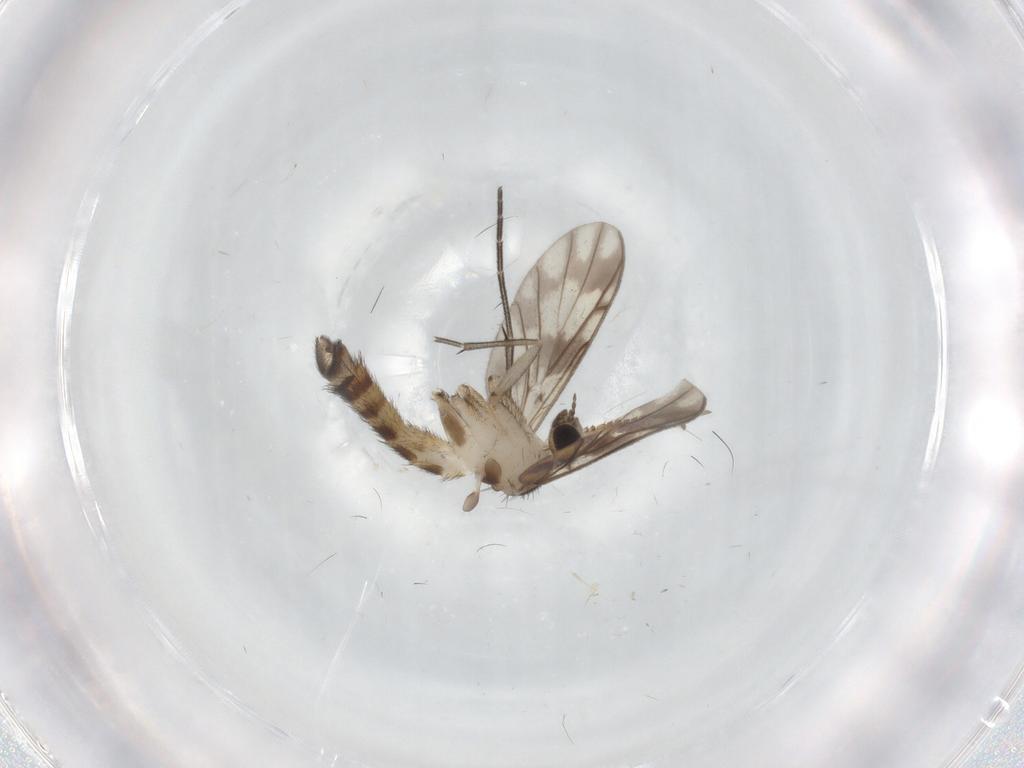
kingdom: Animalia
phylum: Arthropoda
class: Insecta
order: Diptera
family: Keroplatidae
